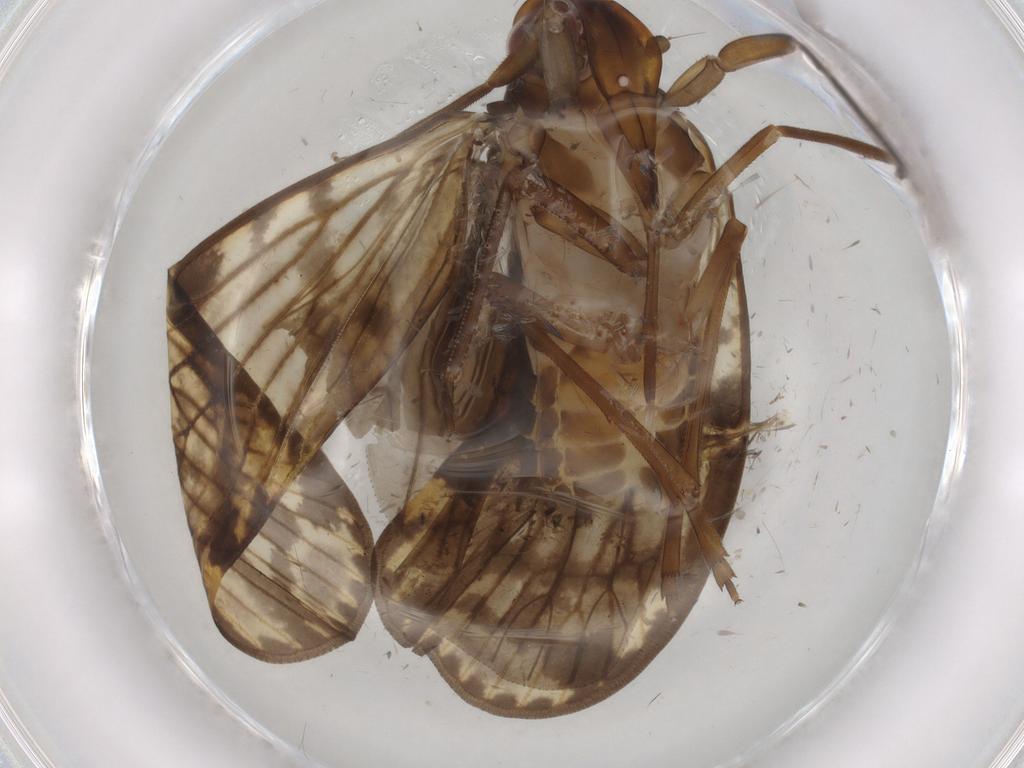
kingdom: Animalia
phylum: Arthropoda
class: Insecta
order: Hemiptera
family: Cicadellidae
